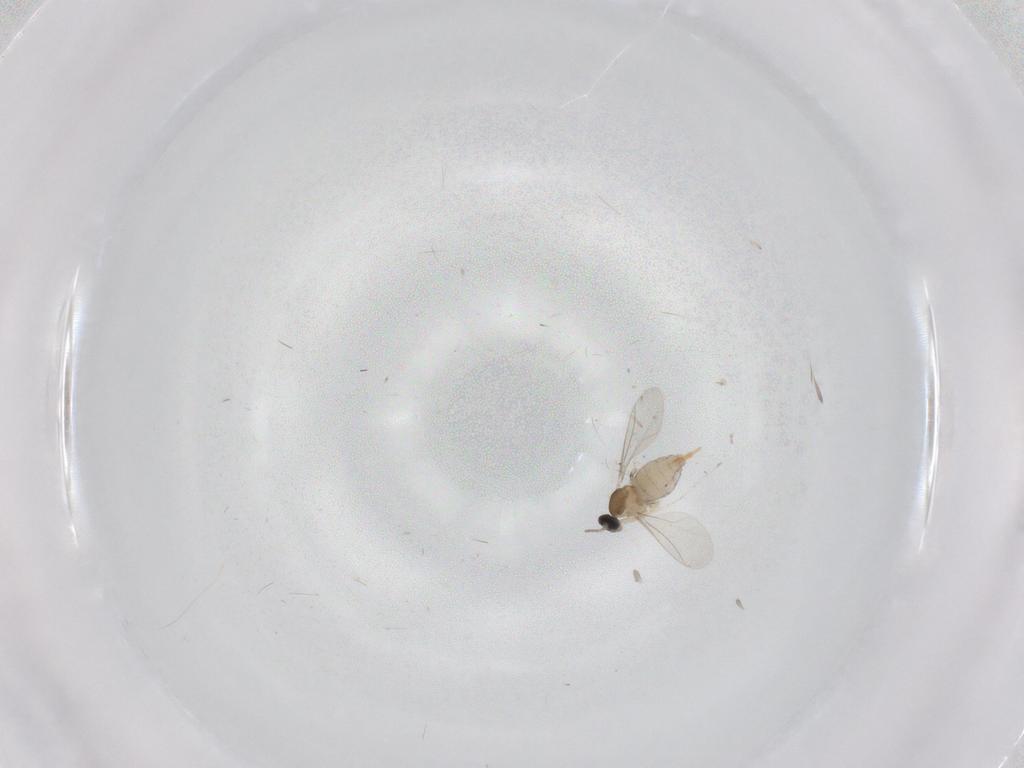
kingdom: Animalia
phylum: Arthropoda
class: Insecta
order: Diptera
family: Cecidomyiidae
